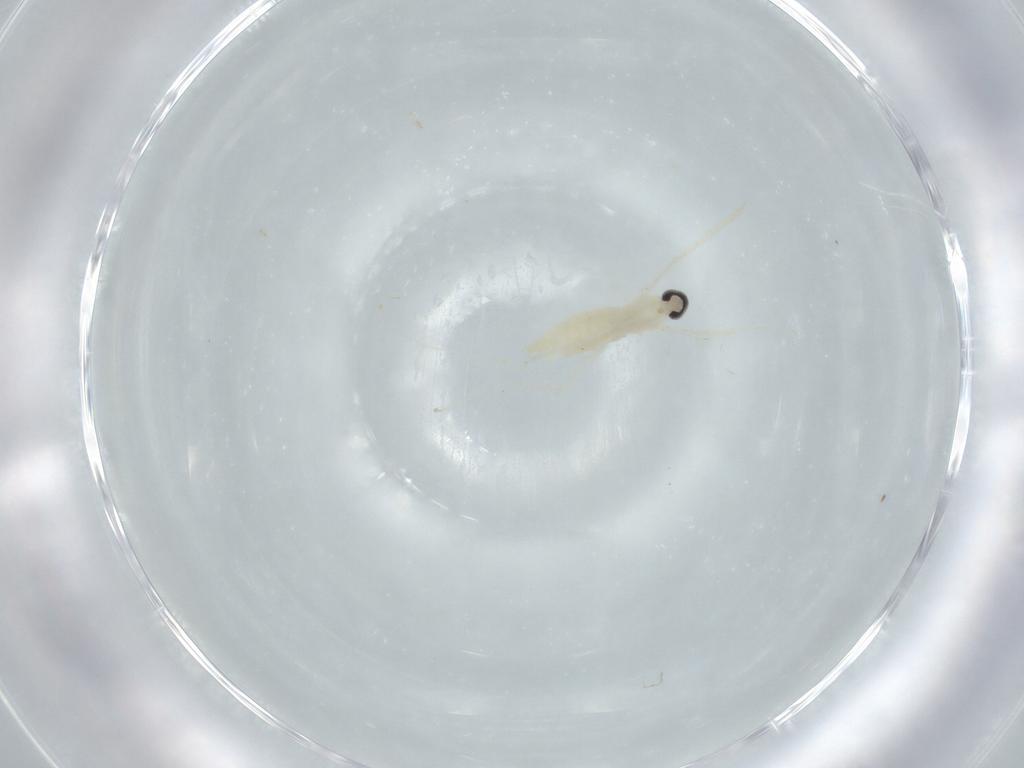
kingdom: Animalia
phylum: Arthropoda
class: Insecta
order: Diptera
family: Cecidomyiidae
